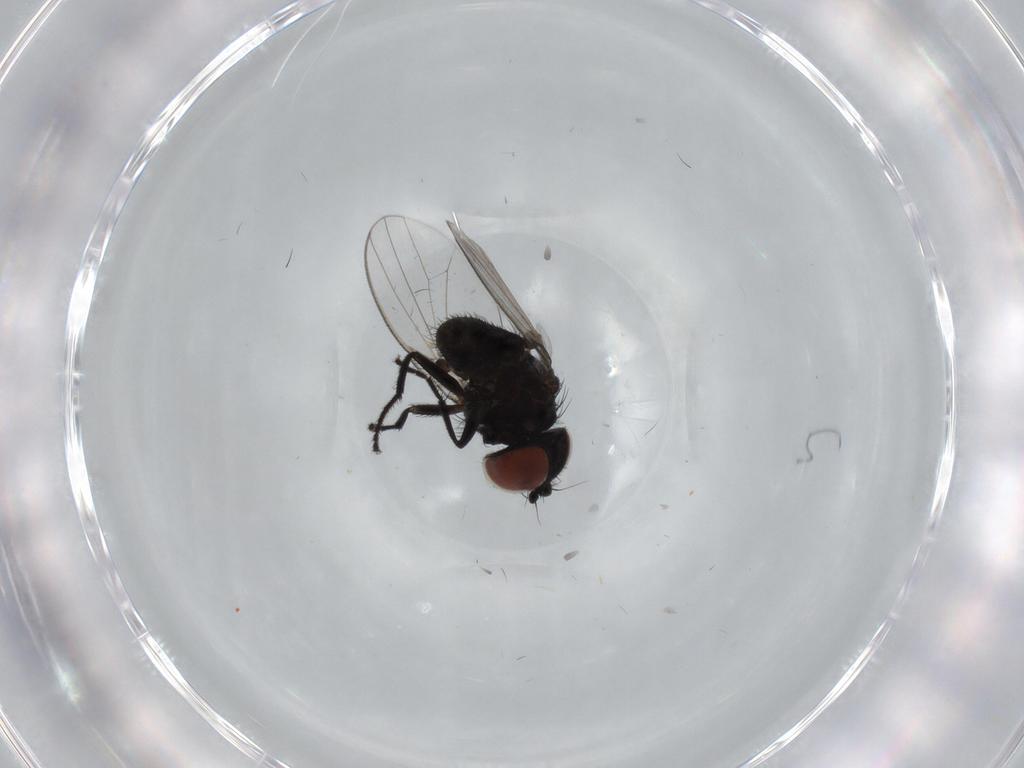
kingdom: Animalia
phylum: Arthropoda
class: Insecta
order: Diptera
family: Milichiidae
